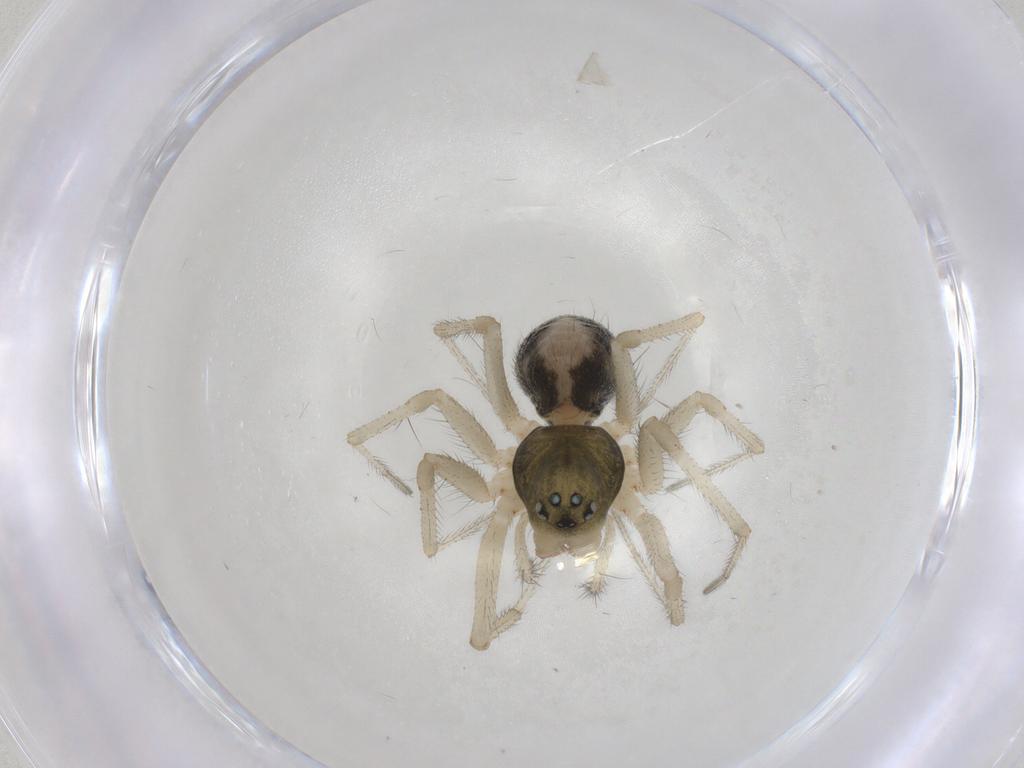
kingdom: Animalia
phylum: Arthropoda
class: Arachnida
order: Araneae
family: Linyphiidae
